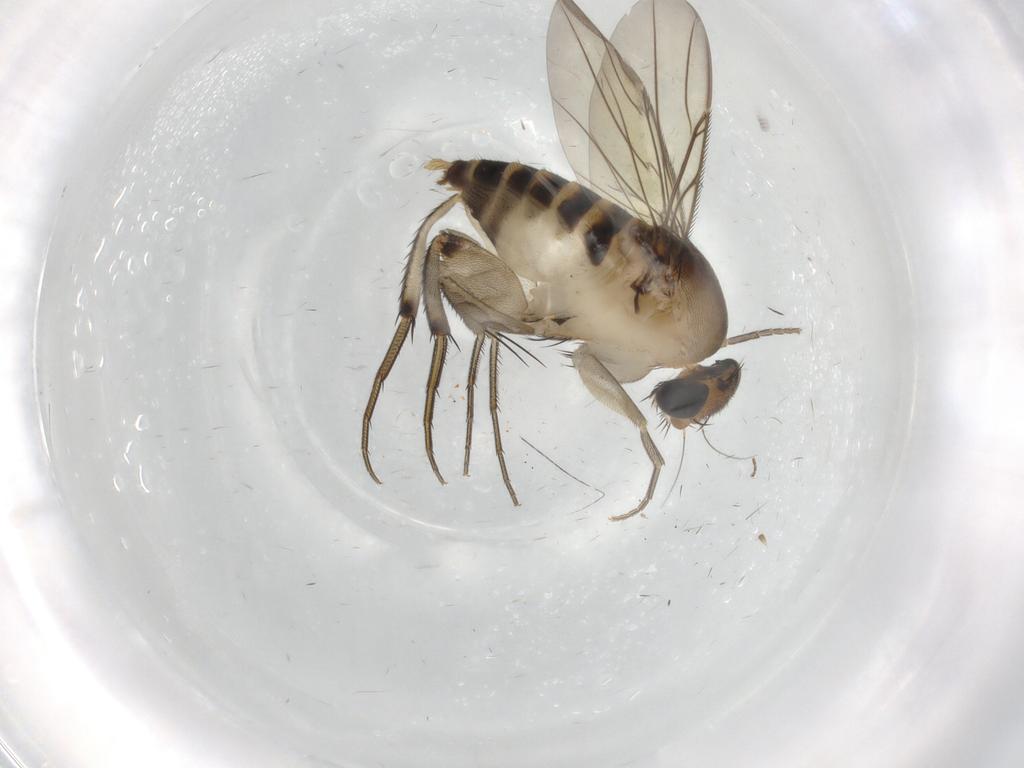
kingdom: Animalia
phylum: Arthropoda
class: Insecta
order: Diptera
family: Phoridae
